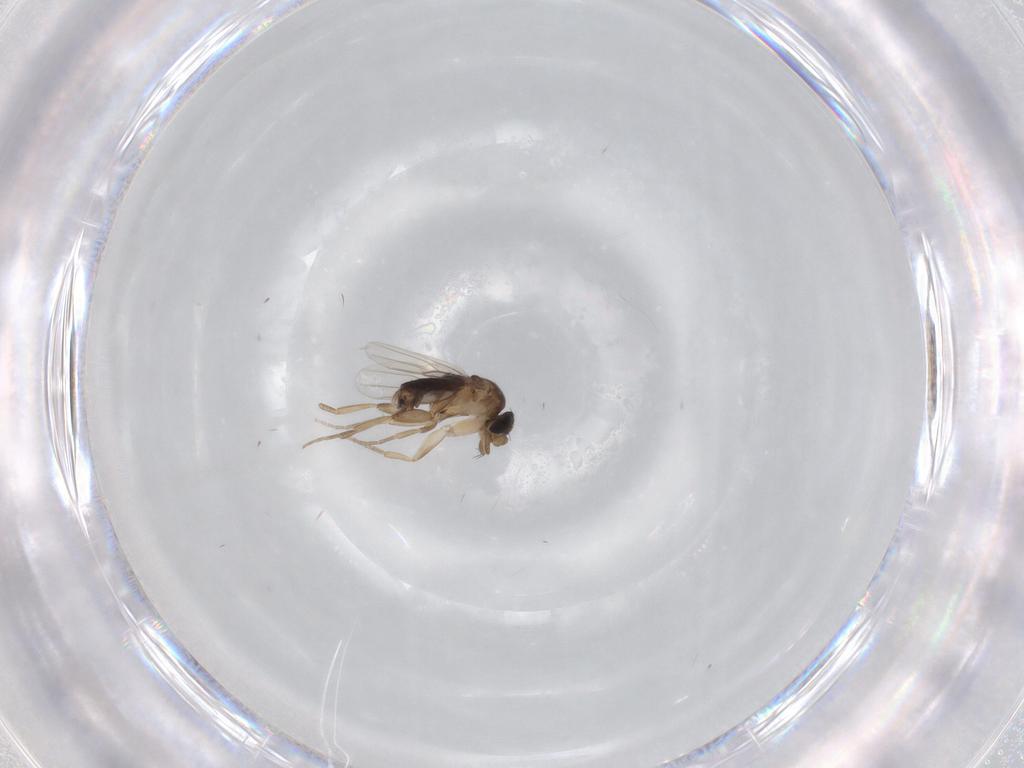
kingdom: Animalia
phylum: Arthropoda
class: Insecta
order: Diptera
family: Phoridae
